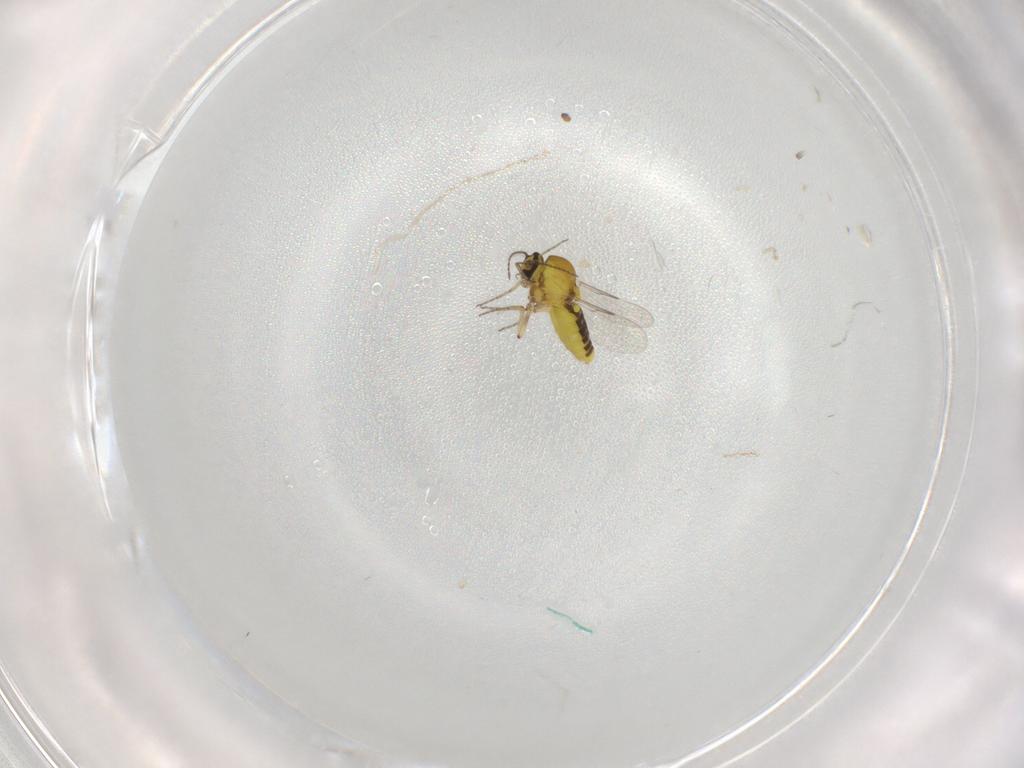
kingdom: Animalia
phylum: Arthropoda
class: Insecta
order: Diptera
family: Ceratopogonidae
